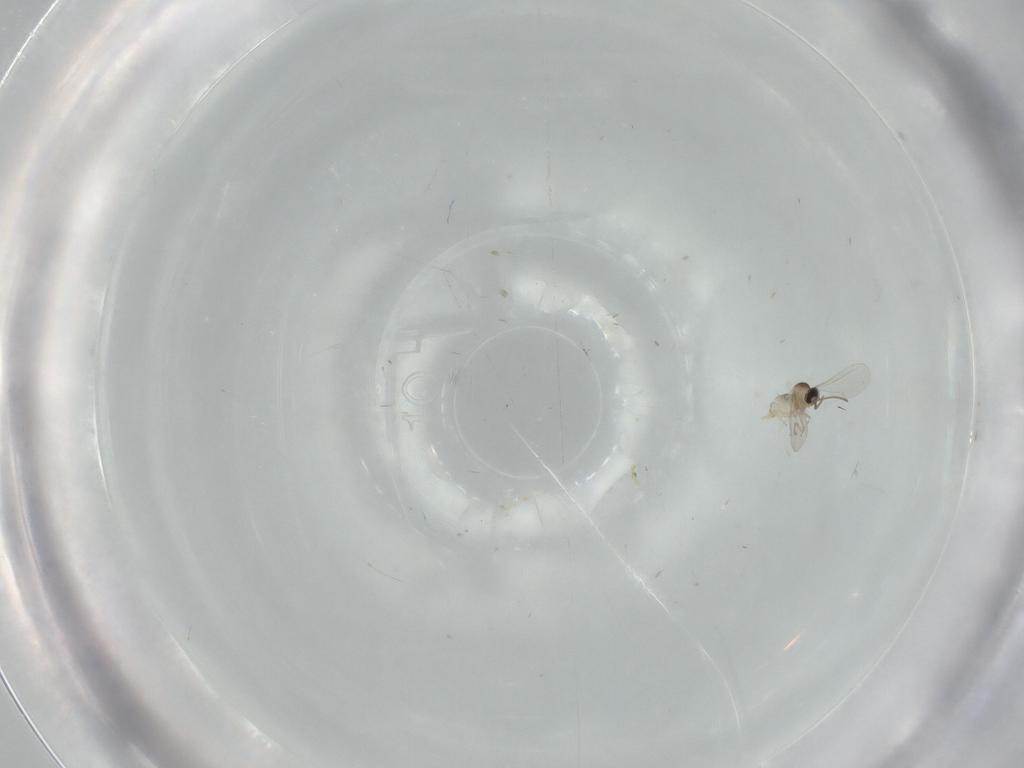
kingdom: Animalia
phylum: Arthropoda
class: Insecta
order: Diptera
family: Cecidomyiidae
